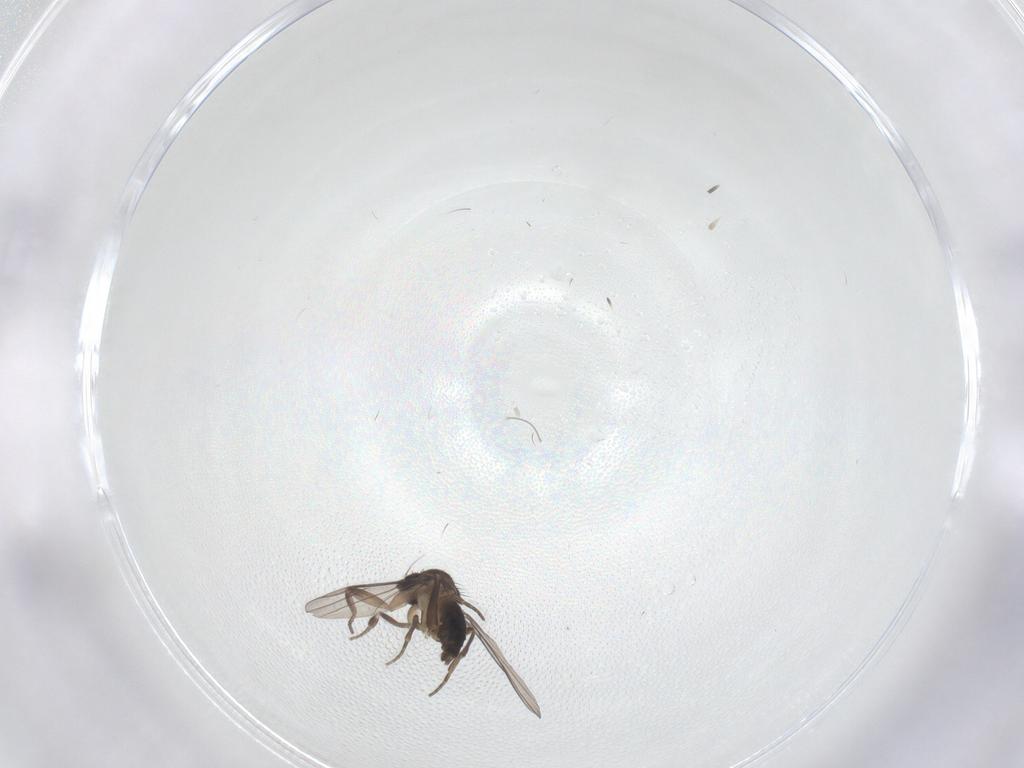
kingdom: Animalia
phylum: Arthropoda
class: Insecta
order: Diptera
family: Phoridae
